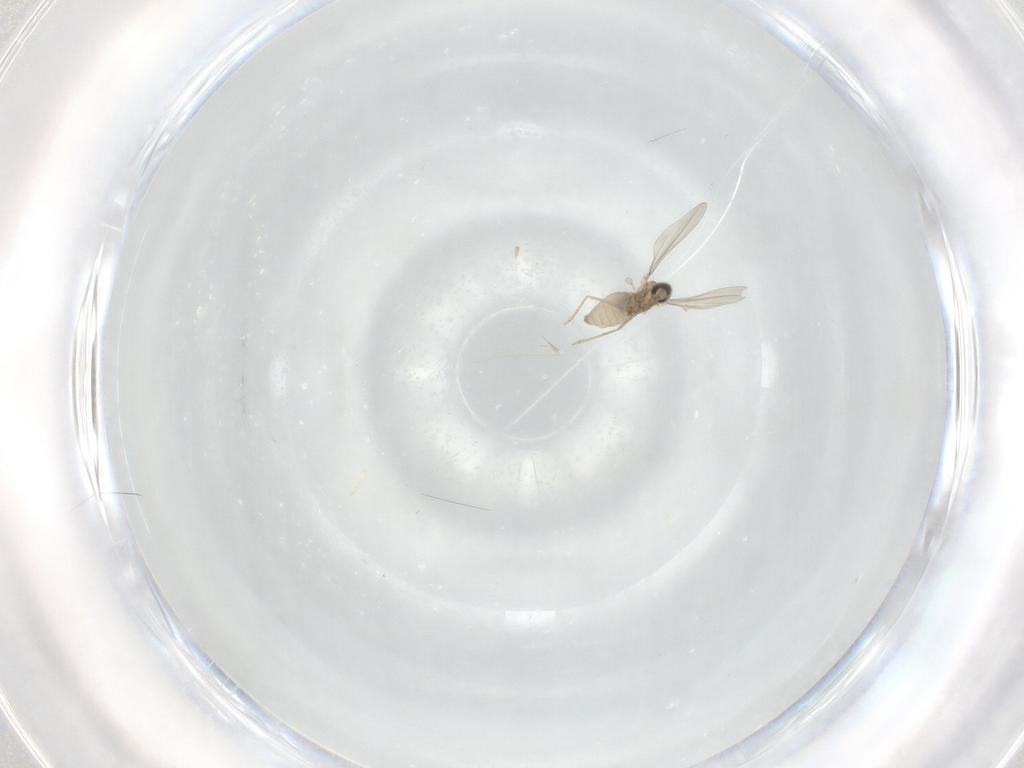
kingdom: Animalia
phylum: Arthropoda
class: Insecta
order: Diptera
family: Cecidomyiidae
